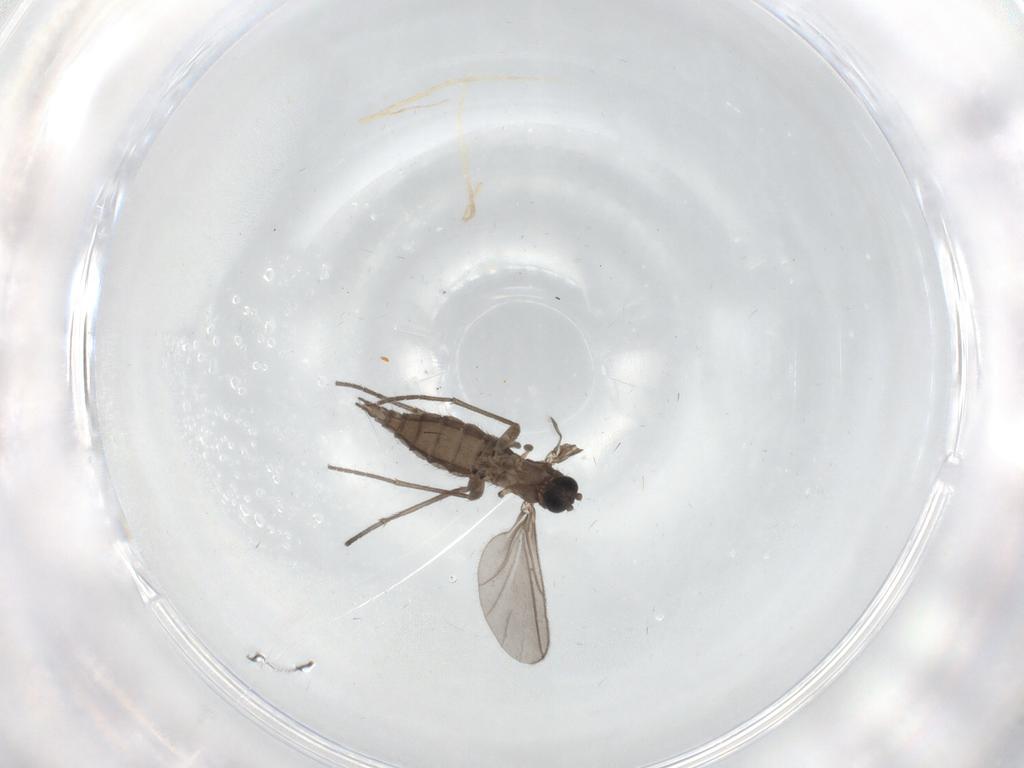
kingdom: Animalia
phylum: Arthropoda
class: Insecta
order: Diptera
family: Sciaridae
